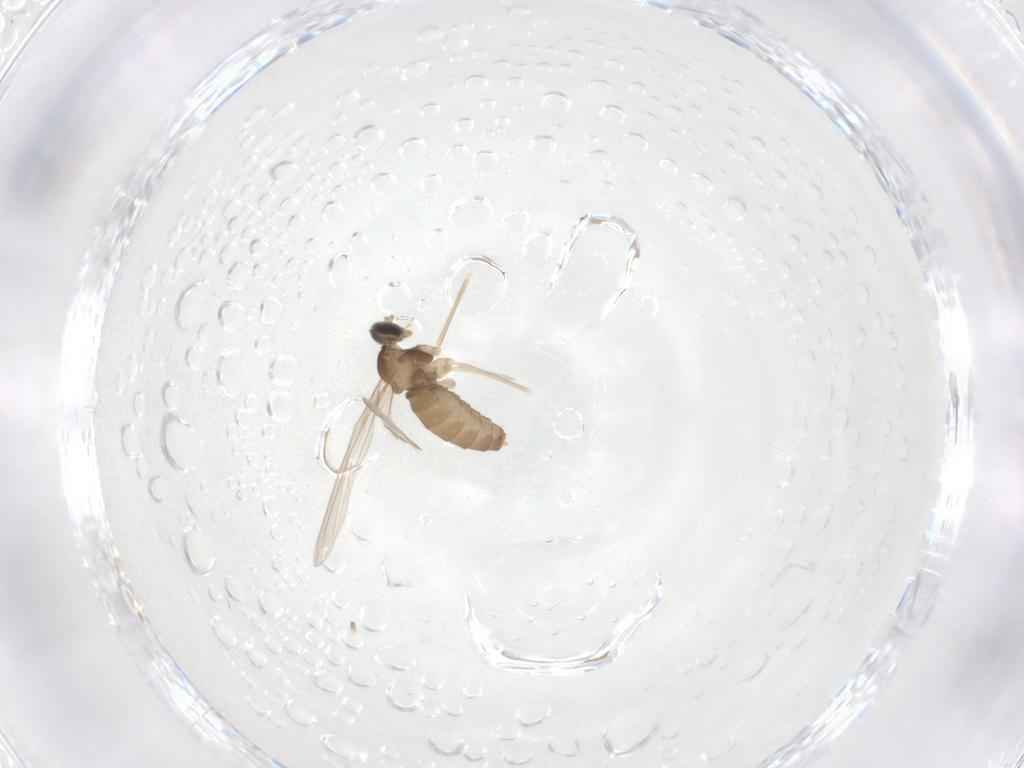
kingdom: Animalia
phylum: Arthropoda
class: Insecta
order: Diptera
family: Cecidomyiidae
